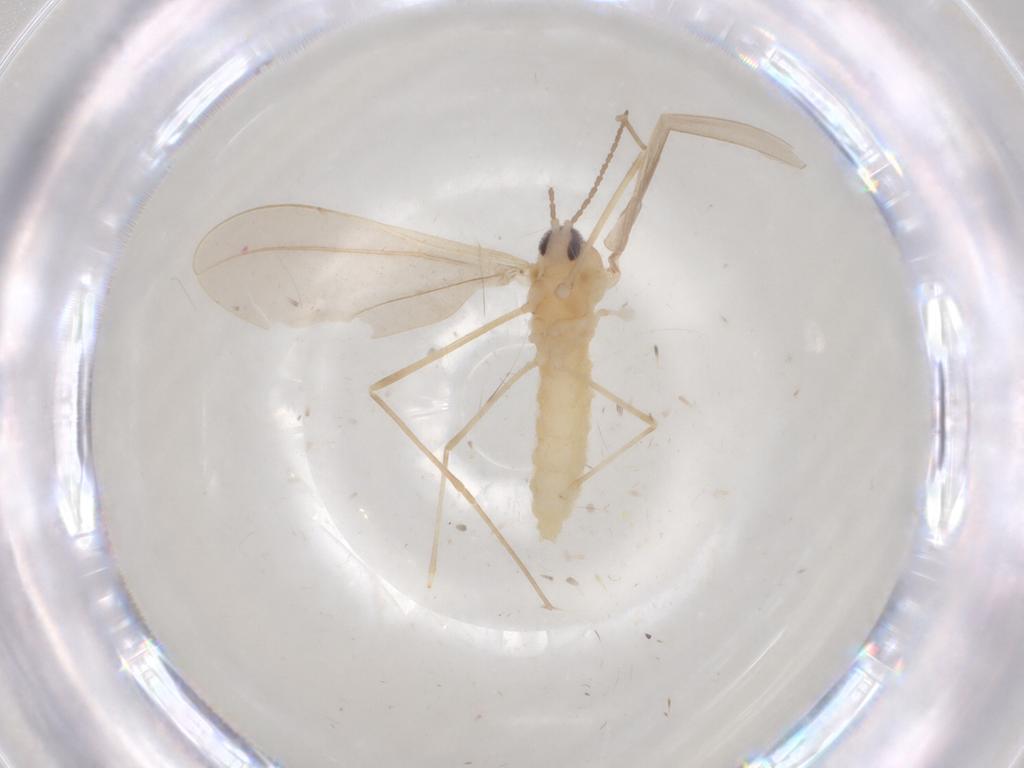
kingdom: Animalia
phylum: Arthropoda
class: Insecta
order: Diptera
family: Cecidomyiidae
